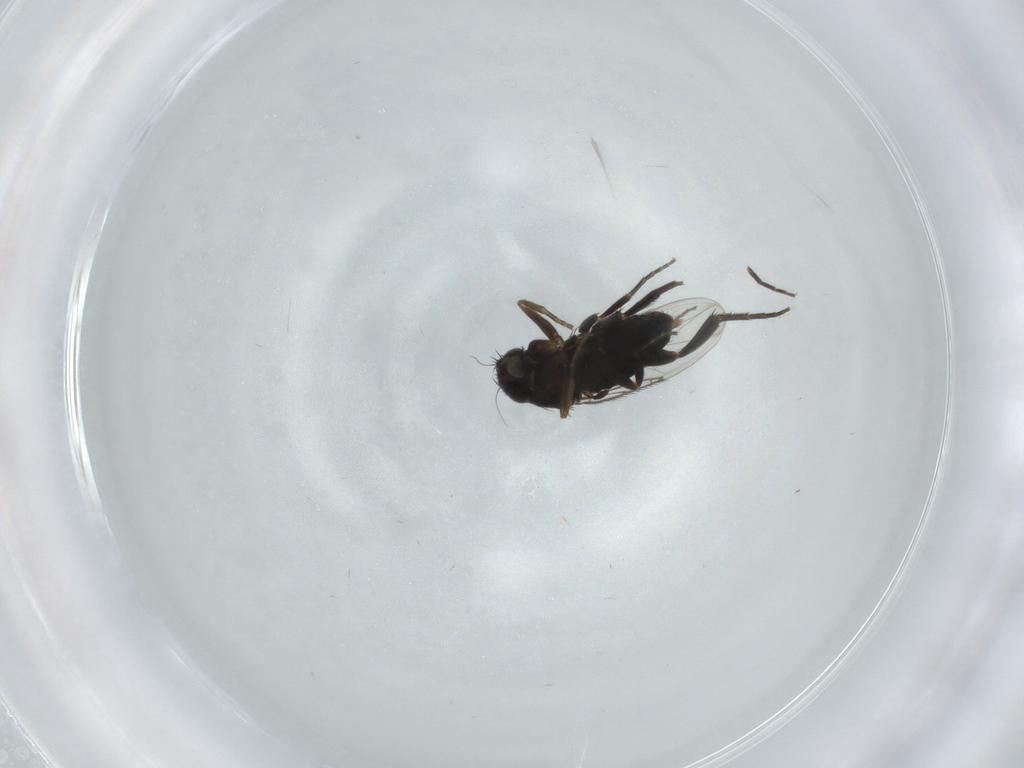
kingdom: Animalia
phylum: Arthropoda
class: Insecta
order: Diptera
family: Phoridae
